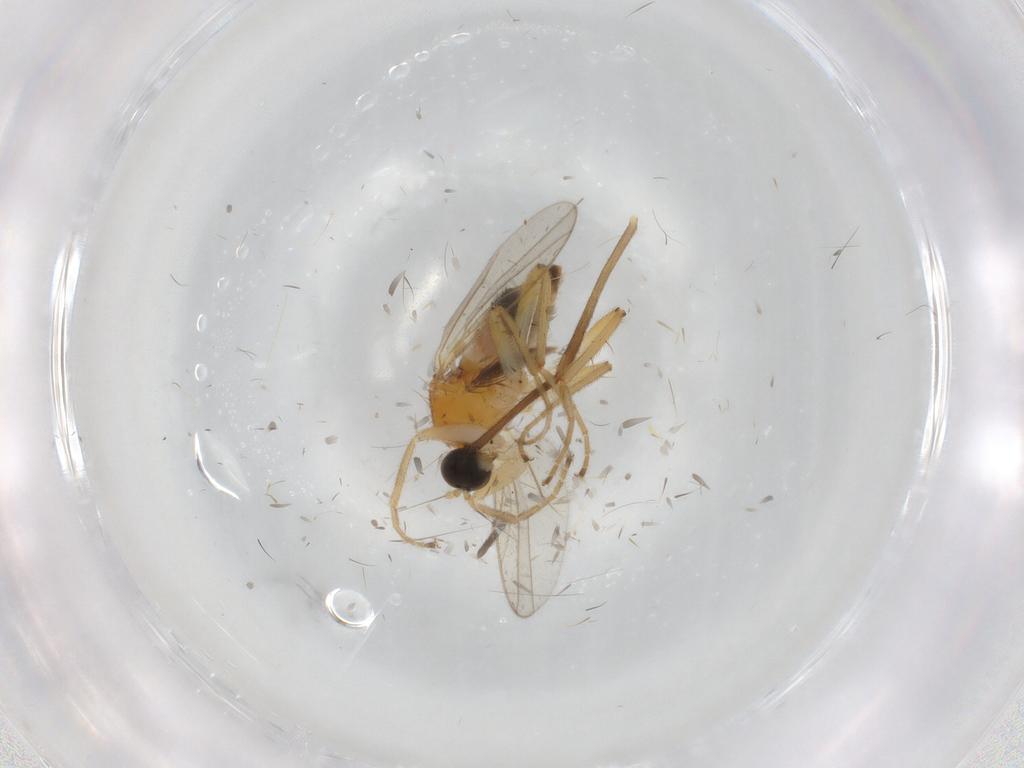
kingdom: Animalia
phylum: Arthropoda
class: Insecta
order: Diptera
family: Hybotidae
